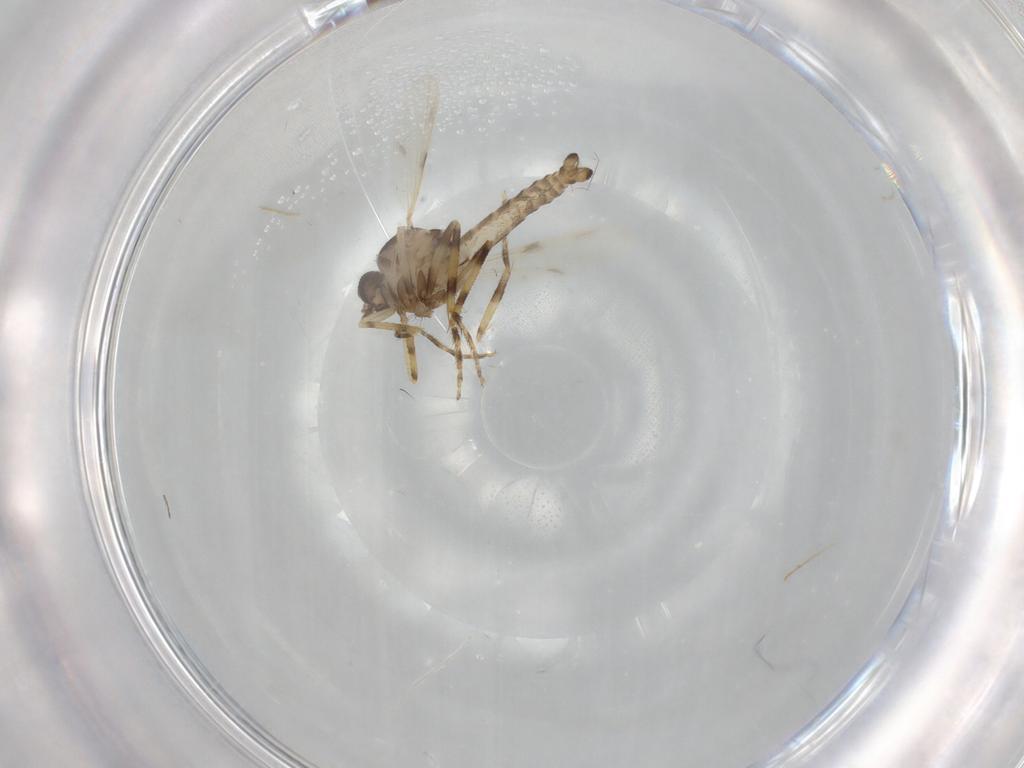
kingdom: Animalia
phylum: Arthropoda
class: Insecta
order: Diptera
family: Ceratopogonidae
